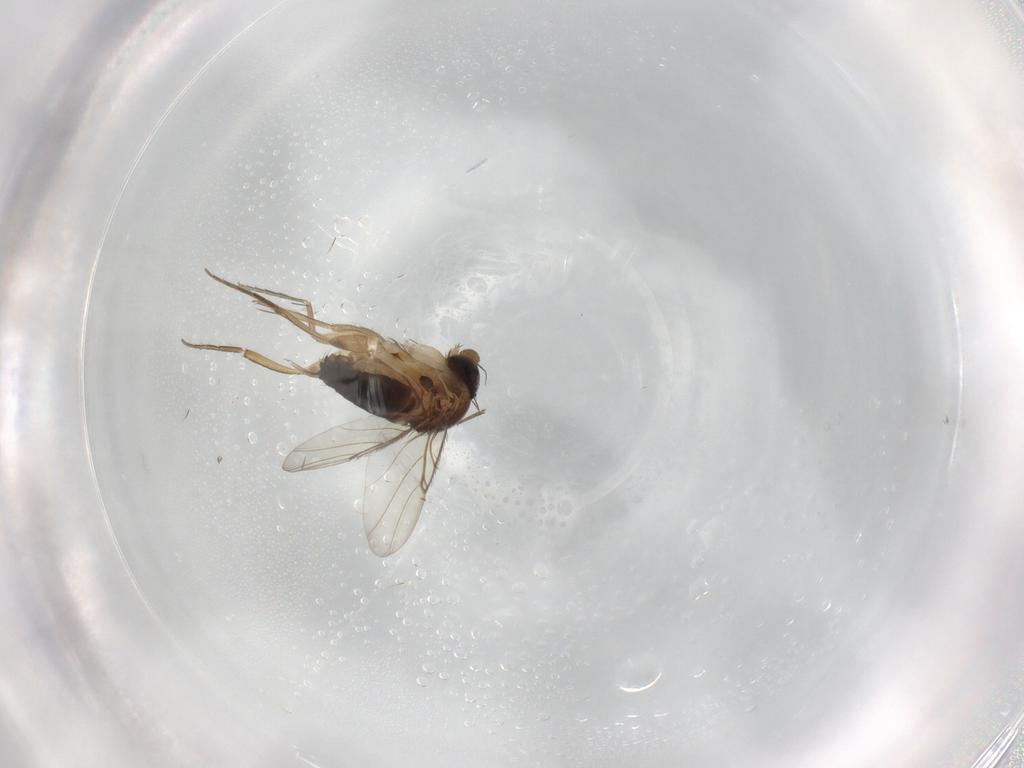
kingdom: Animalia
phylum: Arthropoda
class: Insecta
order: Diptera
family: Phoridae
